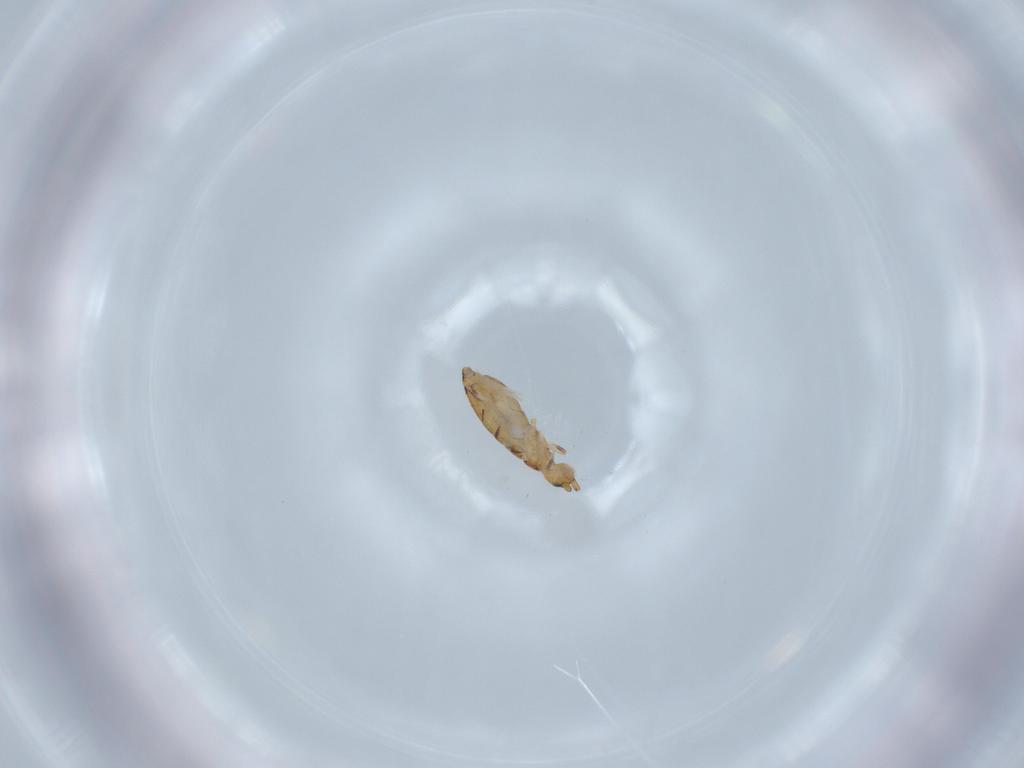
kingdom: Animalia
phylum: Arthropoda
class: Collembola
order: Entomobryomorpha
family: Entomobryidae
